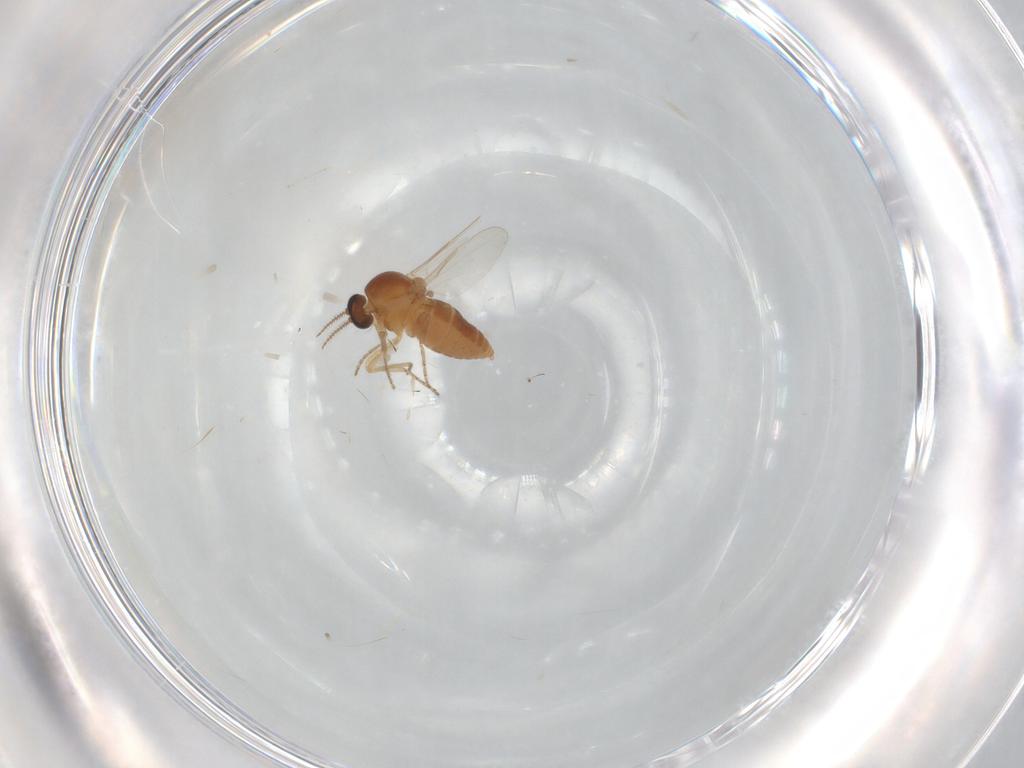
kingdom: Animalia
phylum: Arthropoda
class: Insecta
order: Diptera
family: Ceratopogonidae
